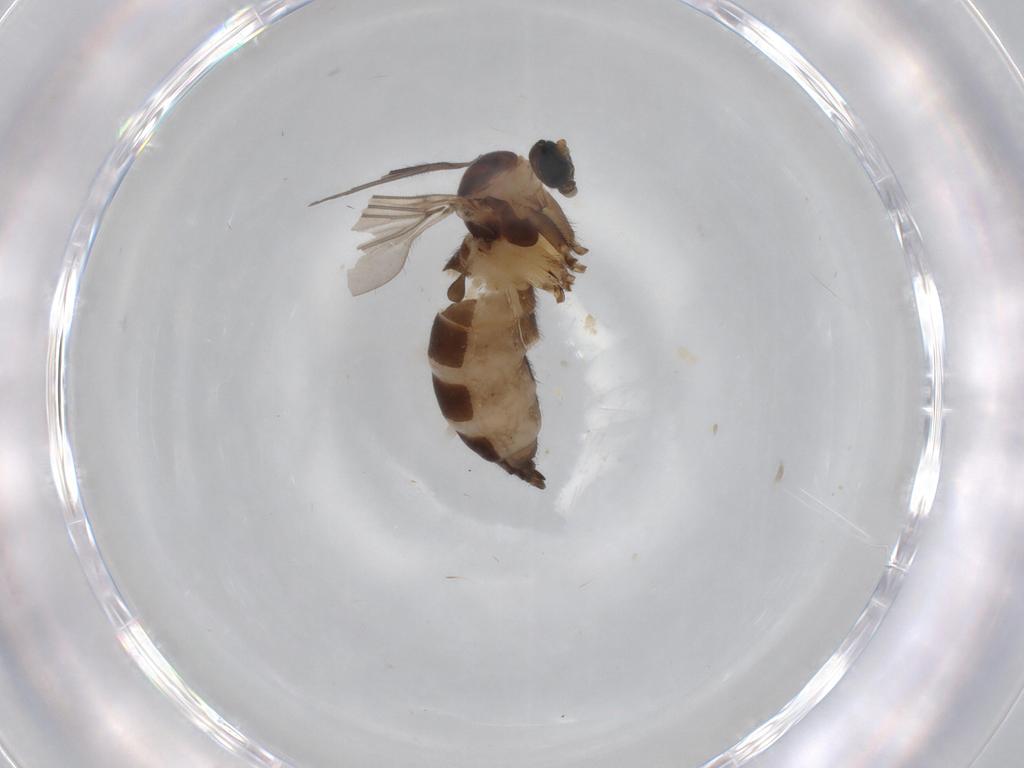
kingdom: Animalia
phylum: Arthropoda
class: Insecta
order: Diptera
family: Sciaridae
